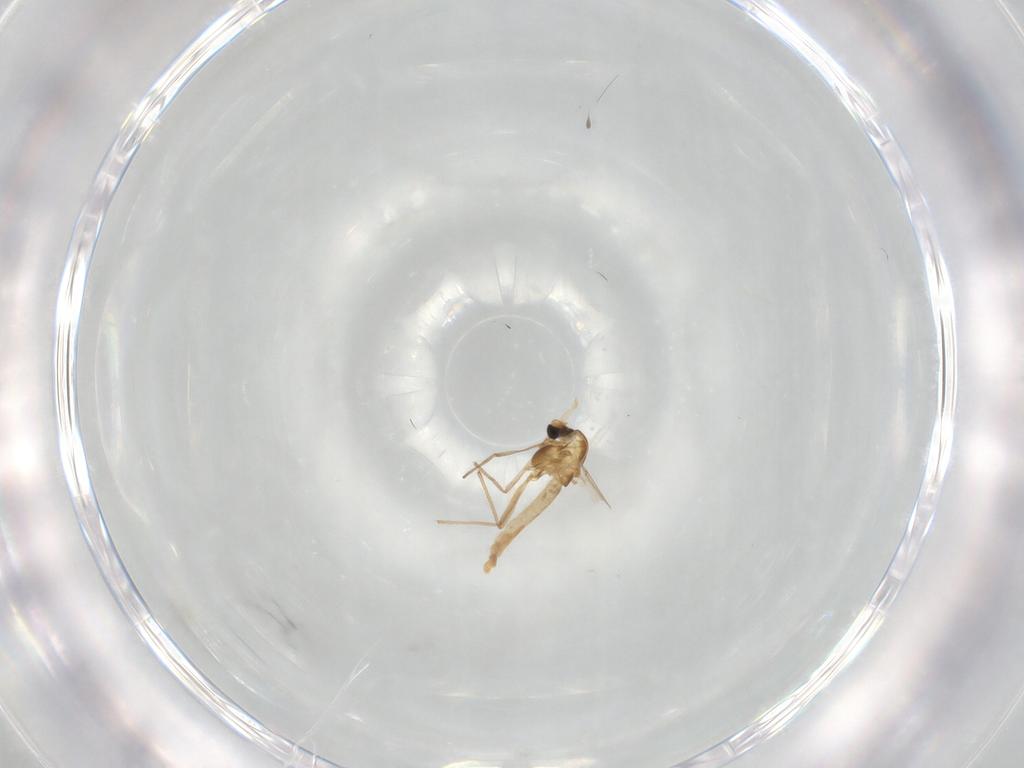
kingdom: Animalia
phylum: Arthropoda
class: Insecta
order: Diptera
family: Chironomidae
